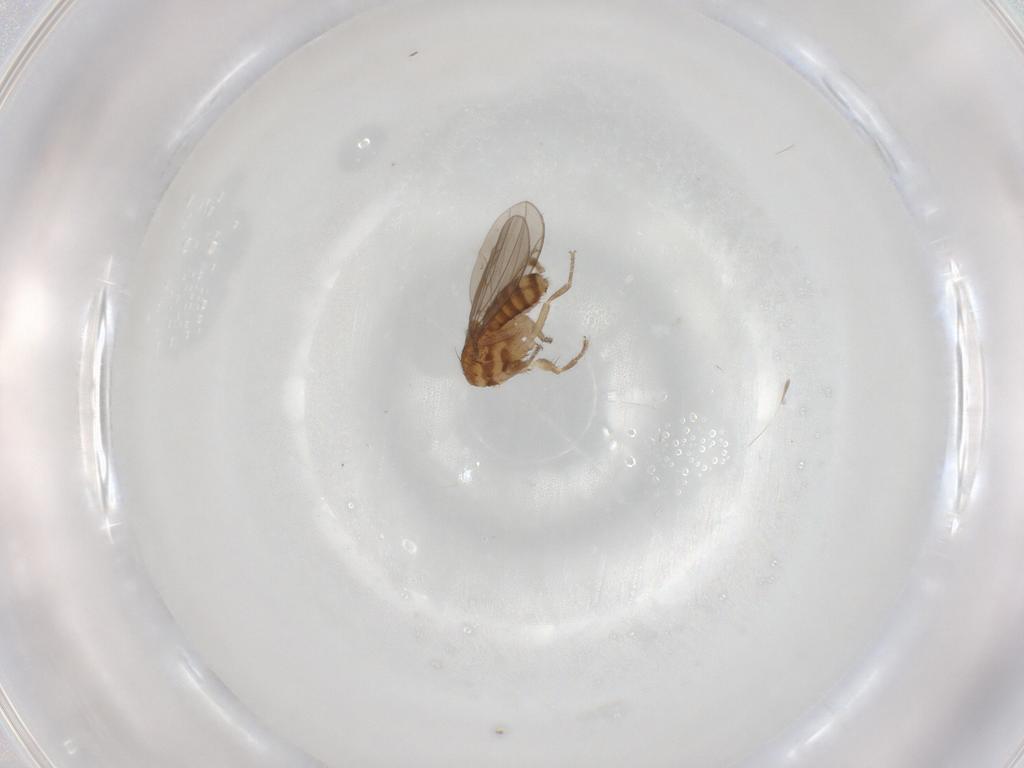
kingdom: Animalia
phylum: Arthropoda
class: Insecta
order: Diptera
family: Ephydridae
